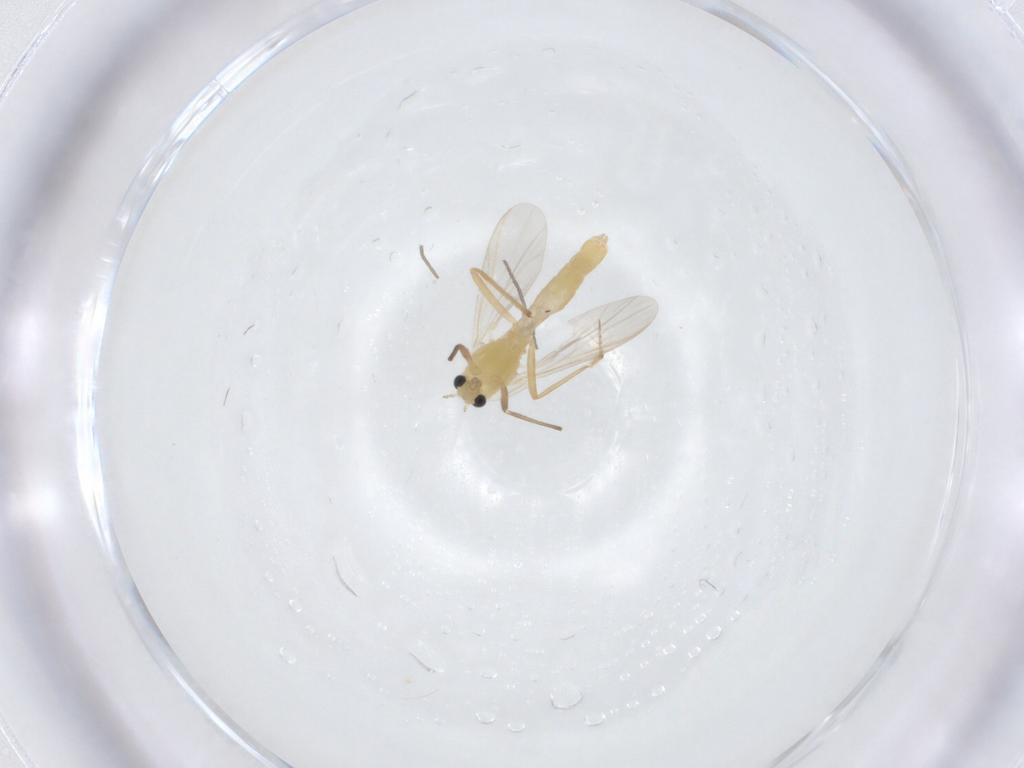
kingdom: Animalia
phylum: Arthropoda
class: Insecta
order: Diptera
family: Chironomidae
